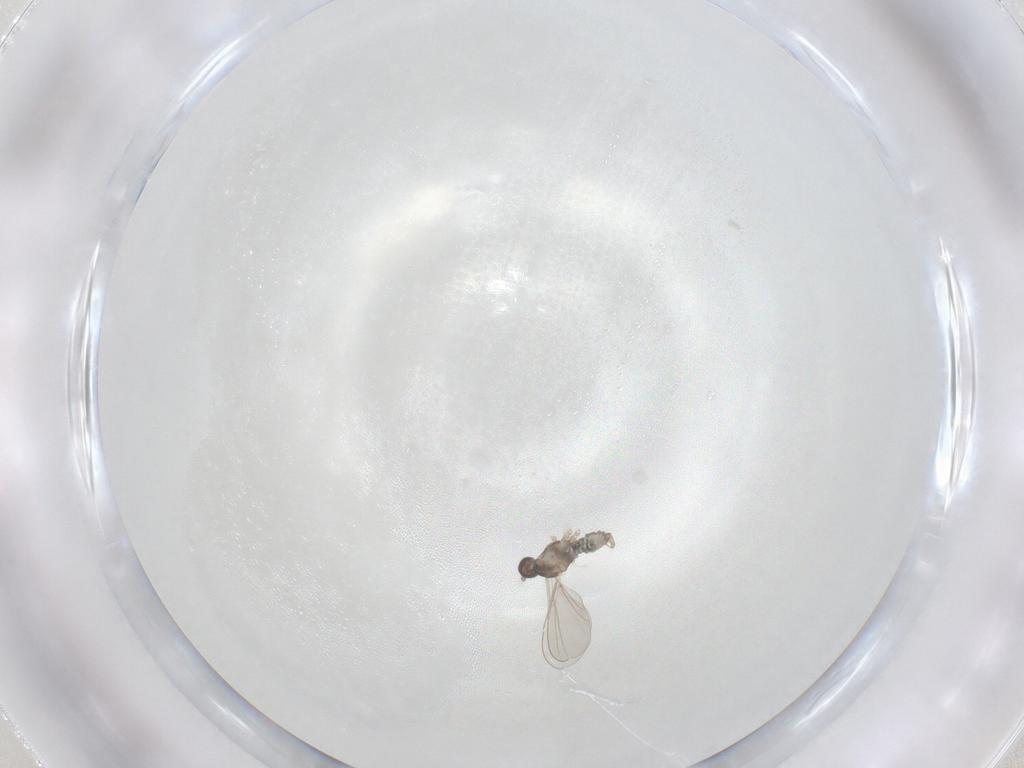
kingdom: Animalia
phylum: Arthropoda
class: Insecta
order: Diptera
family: Cecidomyiidae
